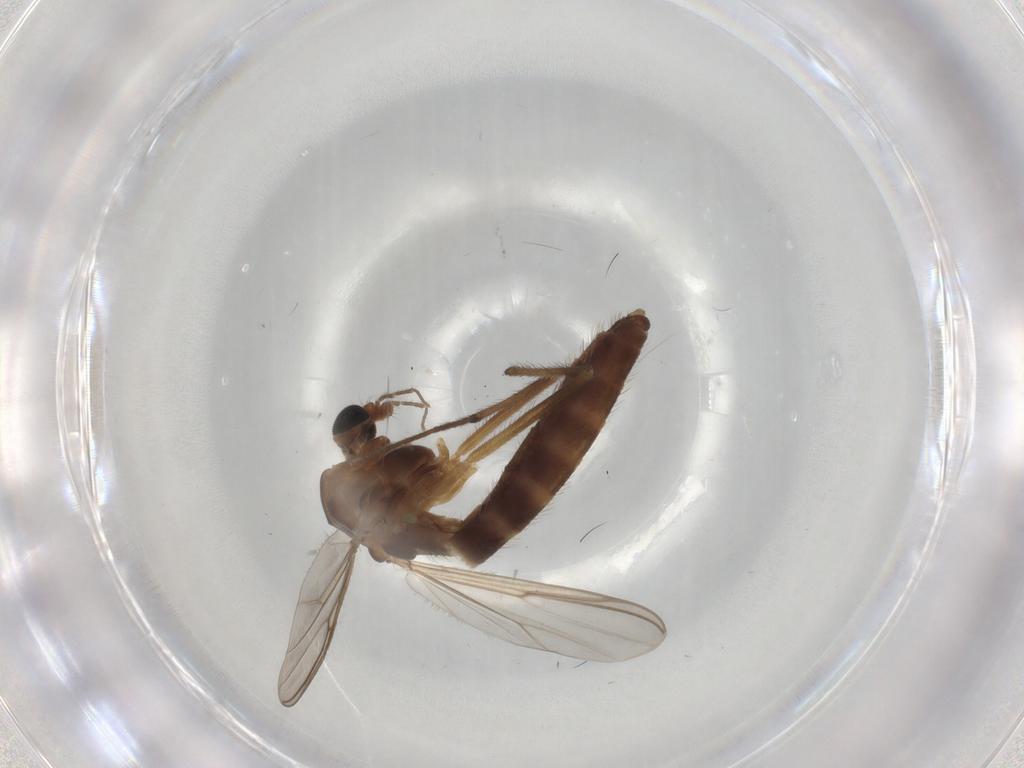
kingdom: Animalia
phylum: Arthropoda
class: Insecta
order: Diptera
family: Chironomidae
